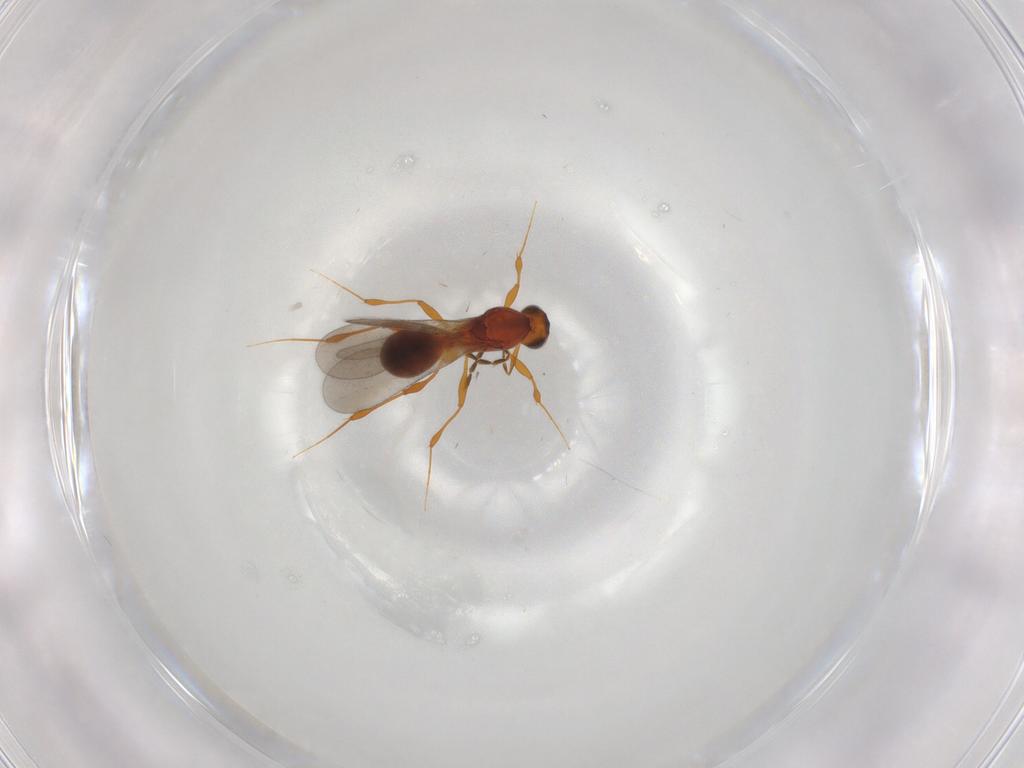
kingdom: Animalia
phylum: Arthropoda
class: Insecta
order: Hymenoptera
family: Platygastridae
